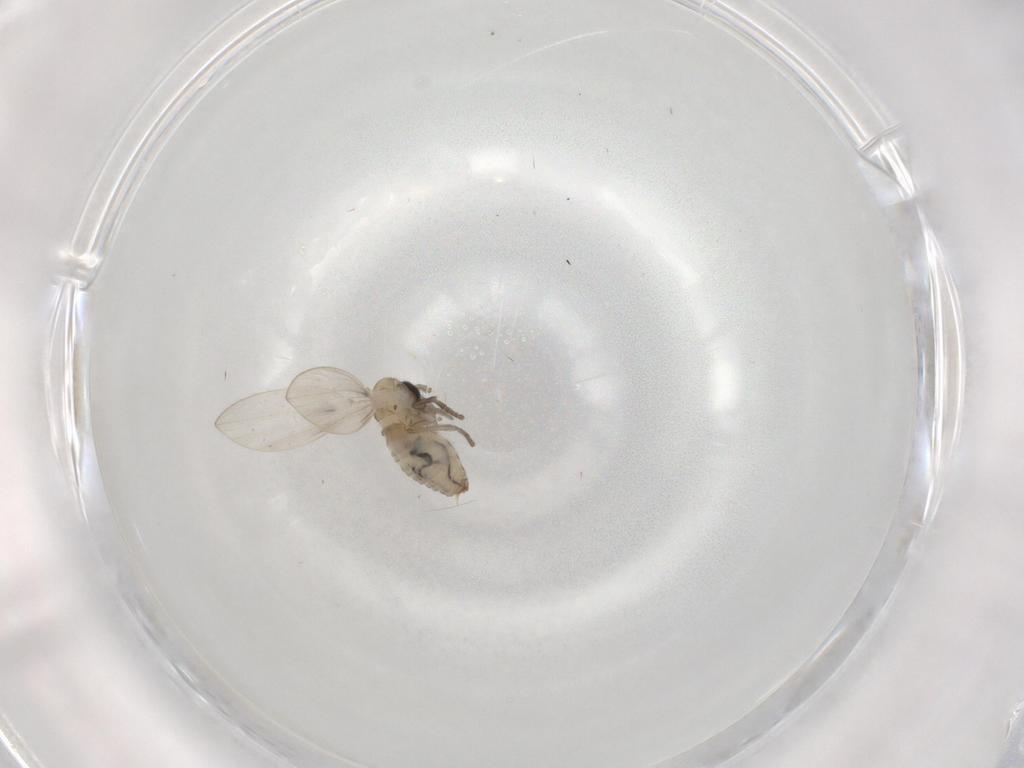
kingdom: Animalia
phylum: Arthropoda
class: Insecta
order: Diptera
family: Psychodidae
